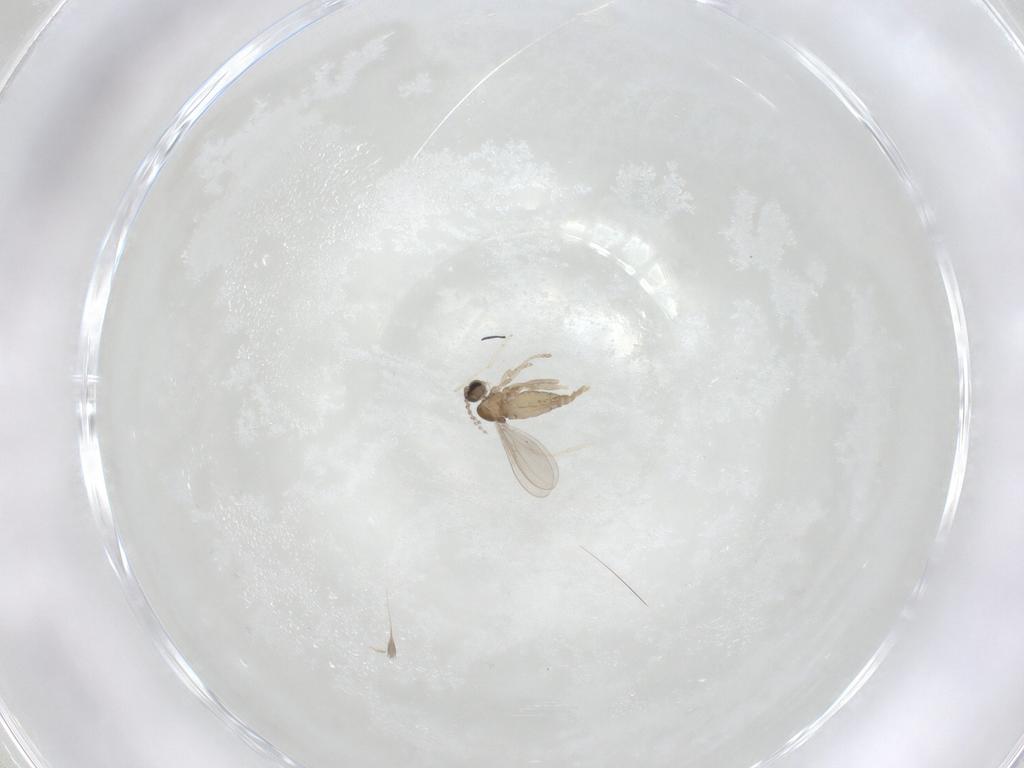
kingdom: Animalia
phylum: Arthropoda
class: Insecta
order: Diptera
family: Cecidomyiidae
